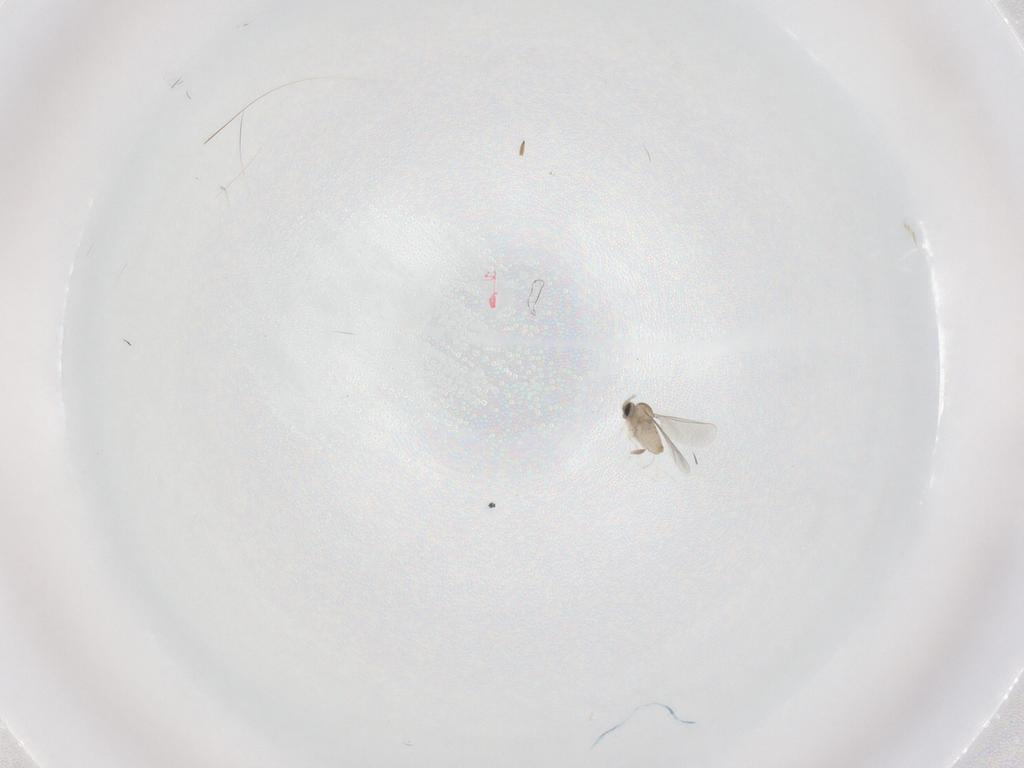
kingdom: Animalia
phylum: Arthropoda
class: Insecta
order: Diptera
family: Cecidomyiidae
